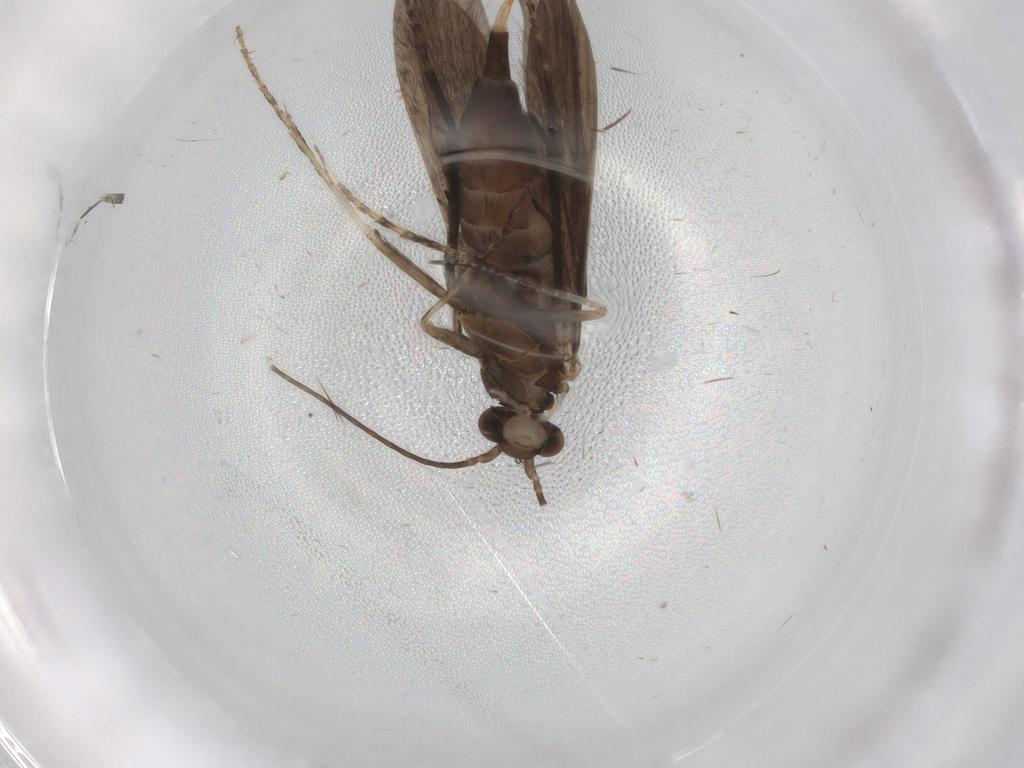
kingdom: Animalia
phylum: Arthropoda
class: Insecta
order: Trichoptera
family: Xiphocentronidae
